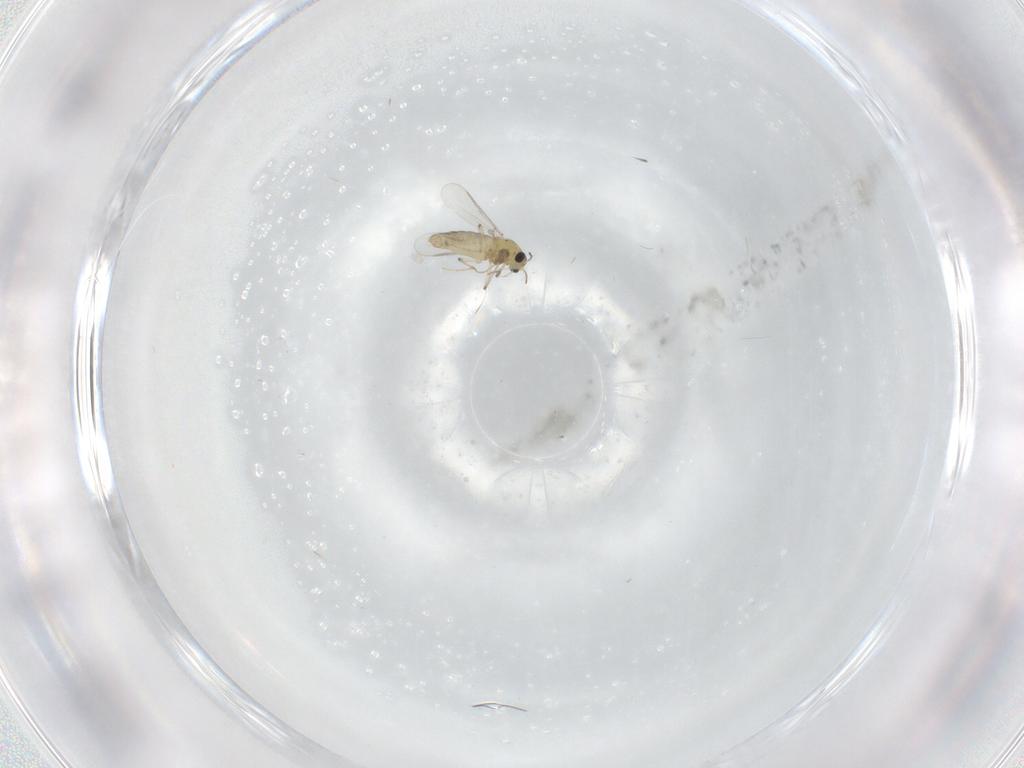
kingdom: Animalia
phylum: Arthropoda
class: Insecta
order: Diptera
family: Chironomidae
